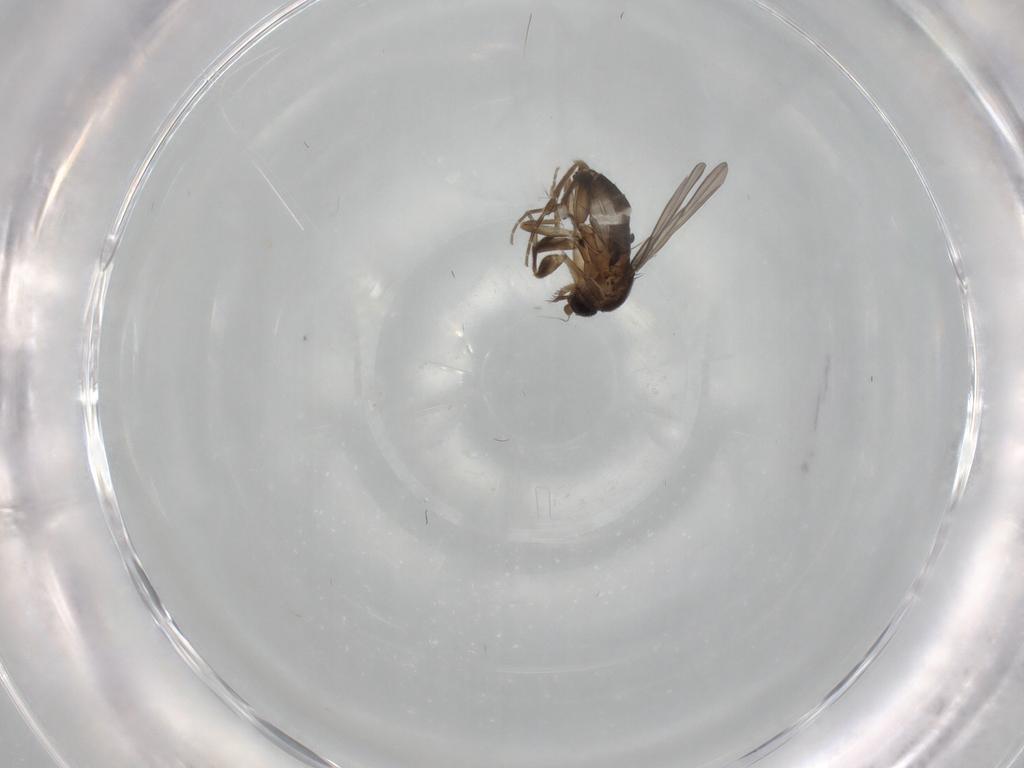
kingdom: Animalia
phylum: Arthropoda
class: Insecta
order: Diptera
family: Phoridae
